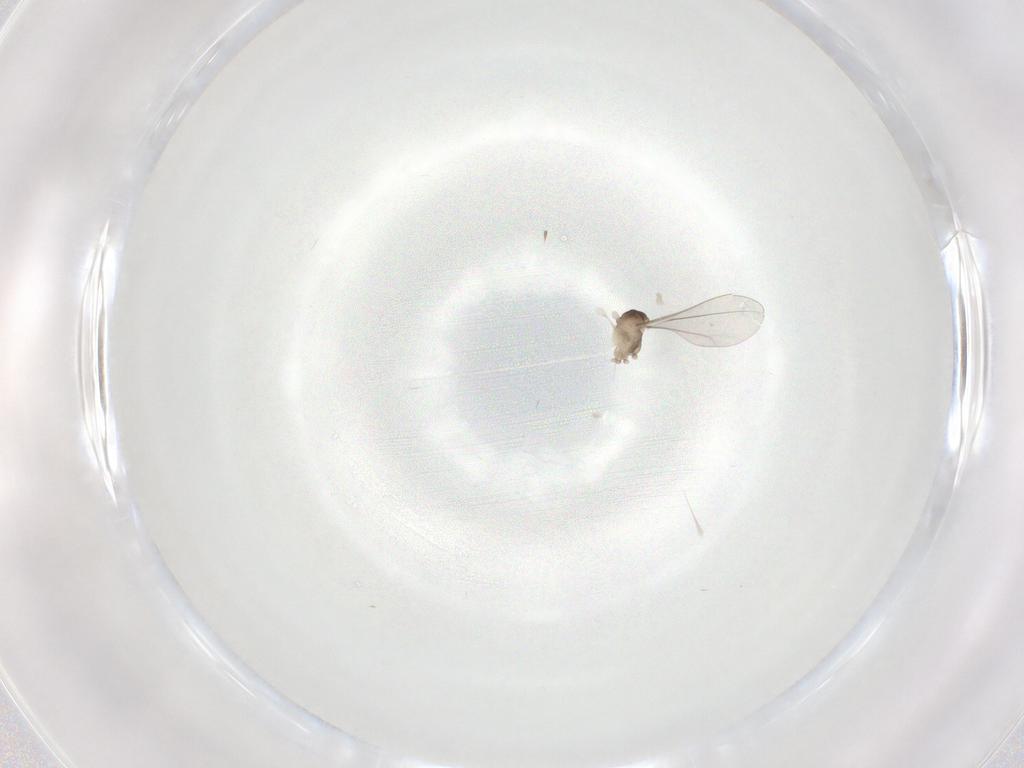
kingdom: Animalia
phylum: Arthropoda
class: Insecta
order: Diptera
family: Cecidomyiidae
